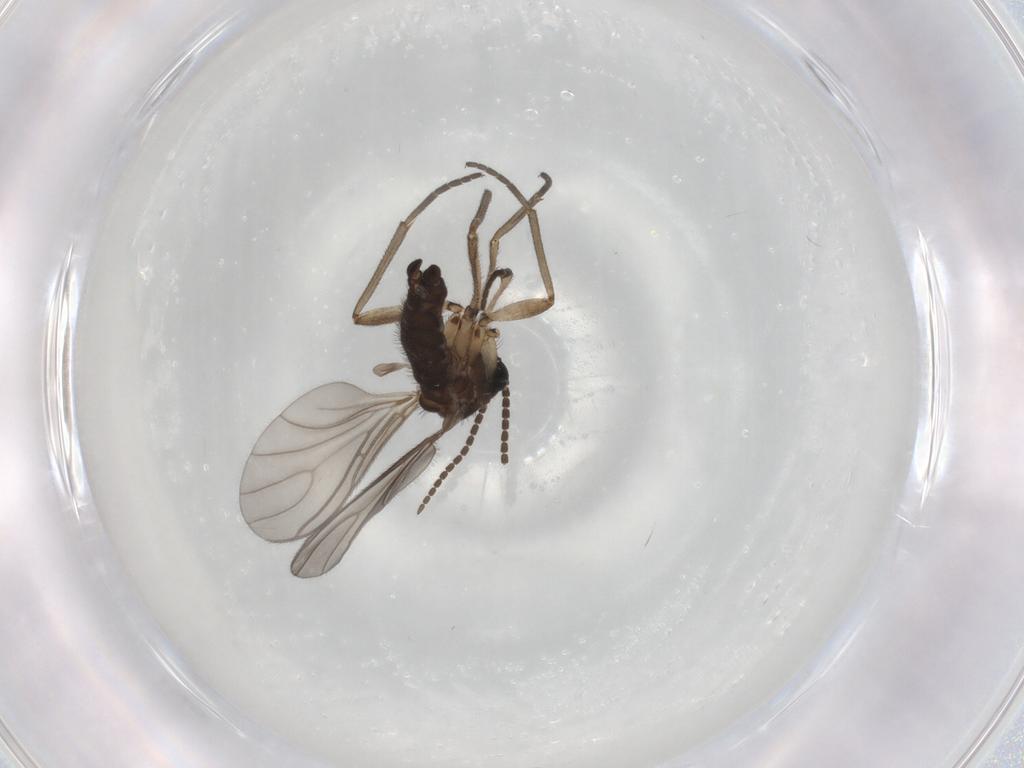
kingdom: Animalia
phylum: Arthropoda
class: Insecta
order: Diptera
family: Sciaridae
